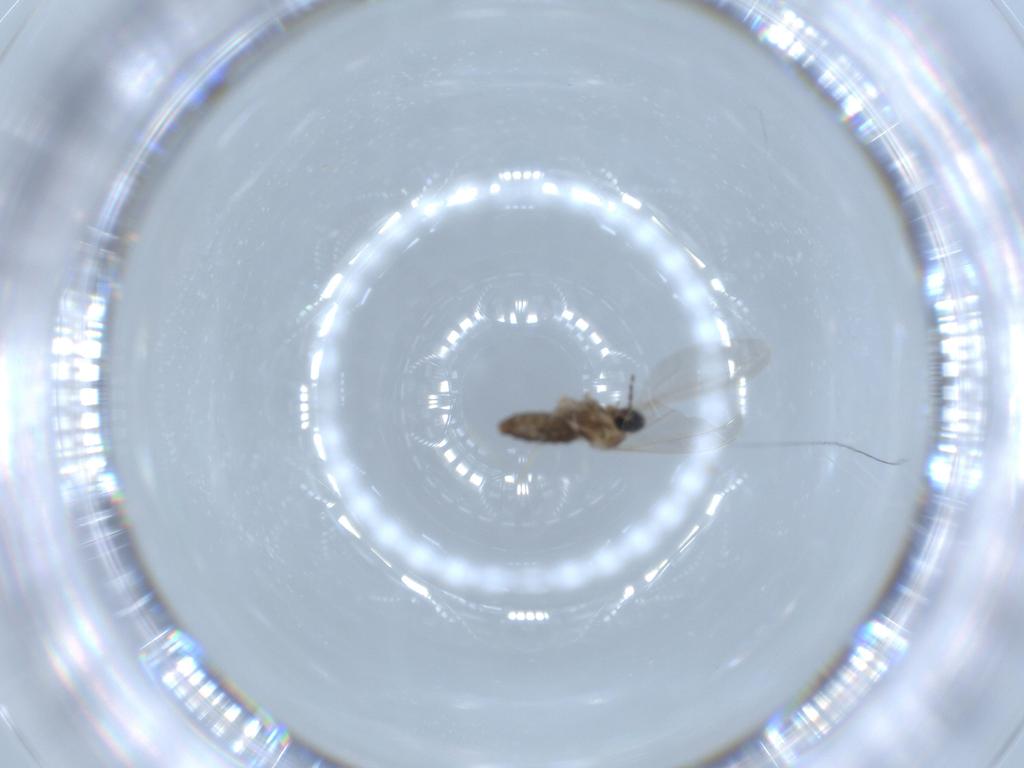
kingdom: Animalia
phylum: Arthropoda
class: Insecta
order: Diptera
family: Cecidomyiidae
